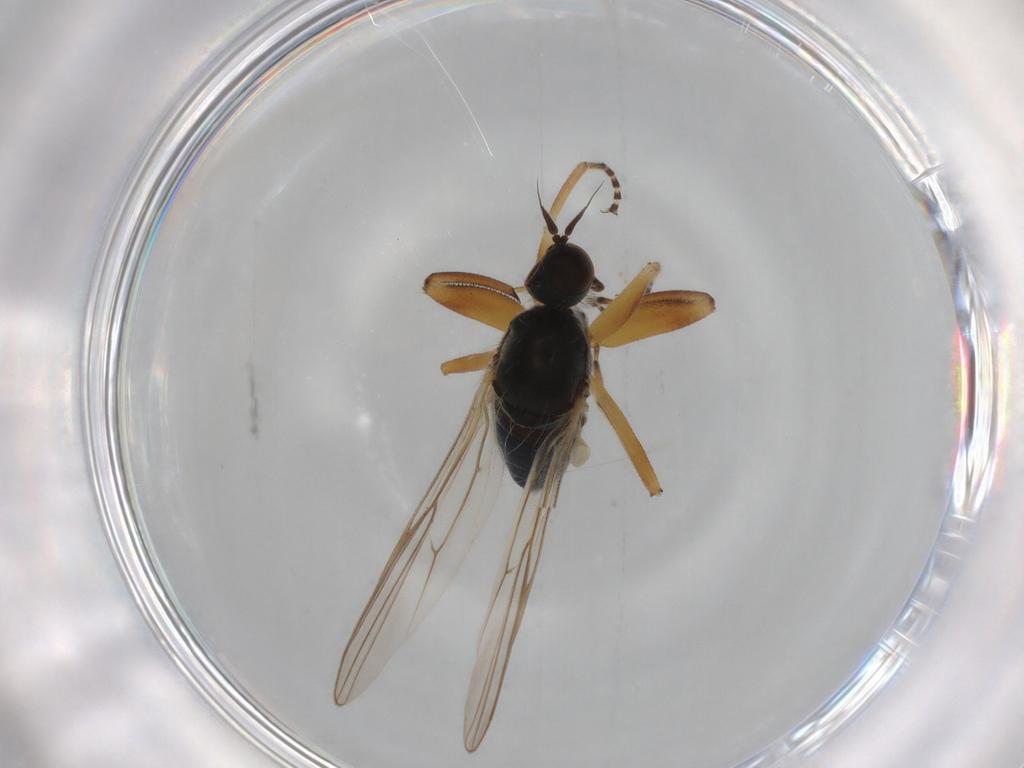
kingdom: Animalia
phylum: Arthropoda
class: Insecta
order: Diptera
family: Hybotidae
